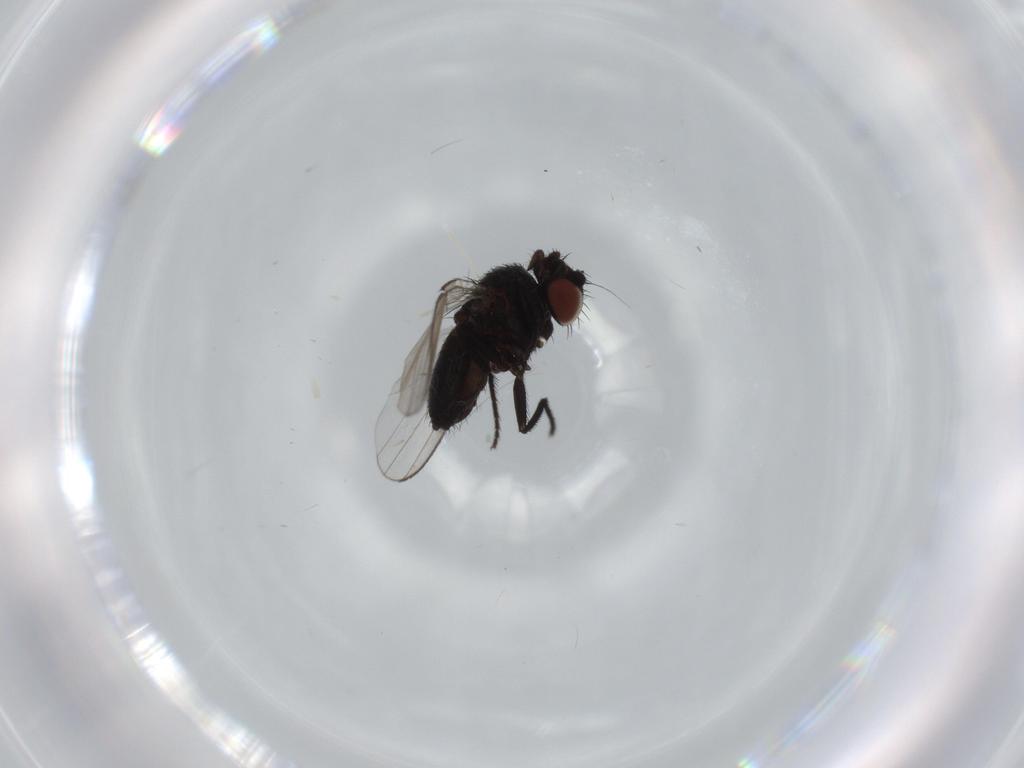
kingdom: Animalia
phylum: Arthropoda
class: Insecta
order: Diptera
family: Milichiidae
